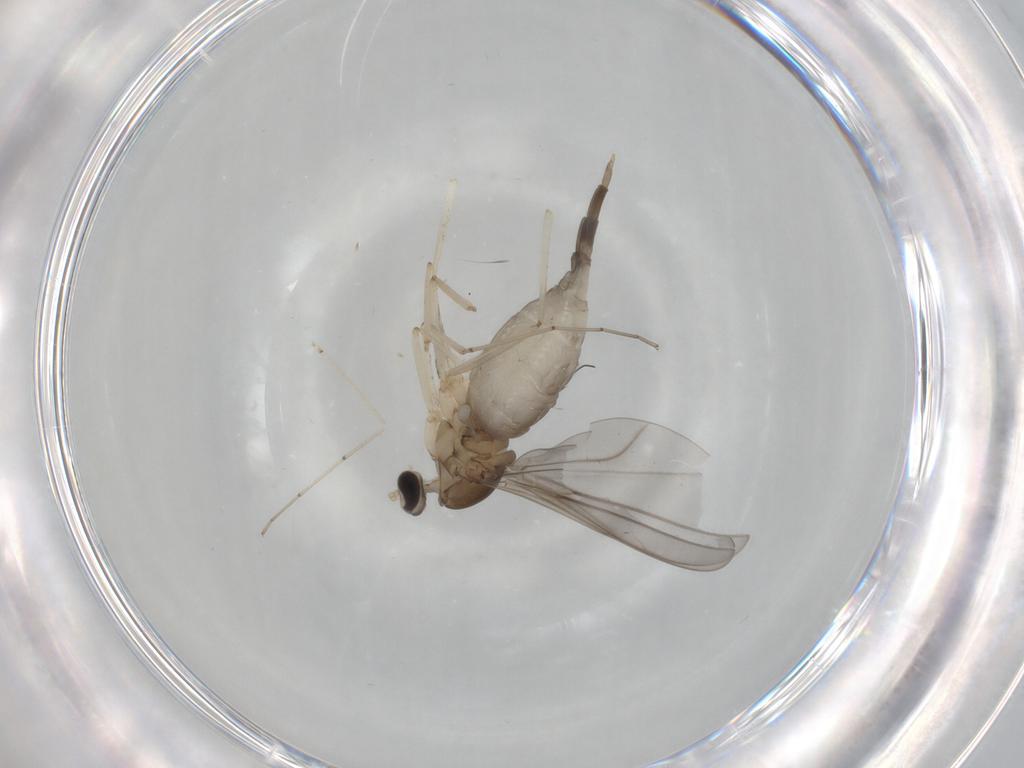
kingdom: Animalia
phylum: Arthropoda
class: Insecta
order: Diptera
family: Cecidomyiidae
